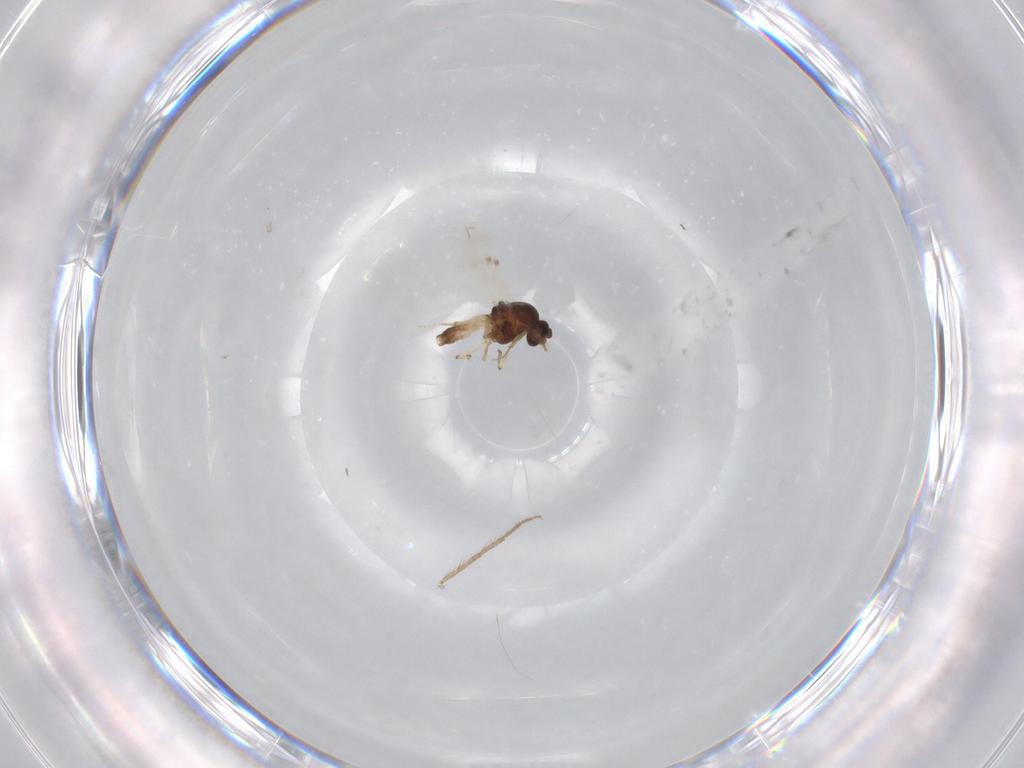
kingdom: Animalia
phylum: Arthropoda
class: Insecta
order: Diptera
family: Chironomidae
